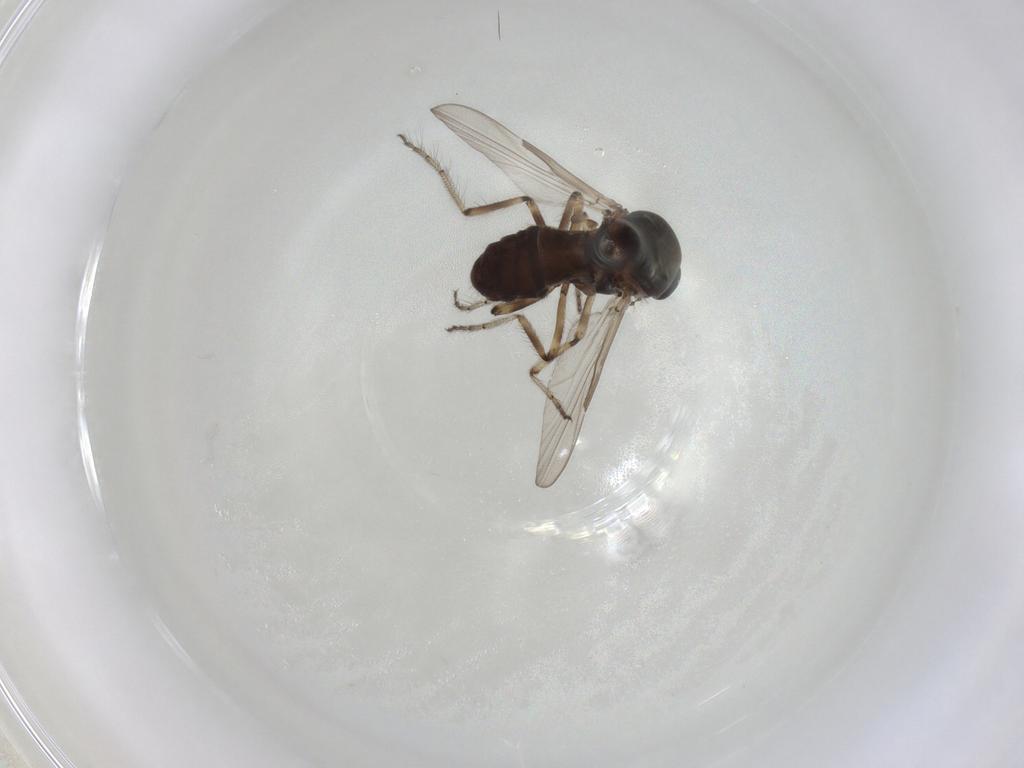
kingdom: Animalia
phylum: Arthropoda
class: Insecta
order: Diptera
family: Ceratopogonidae
